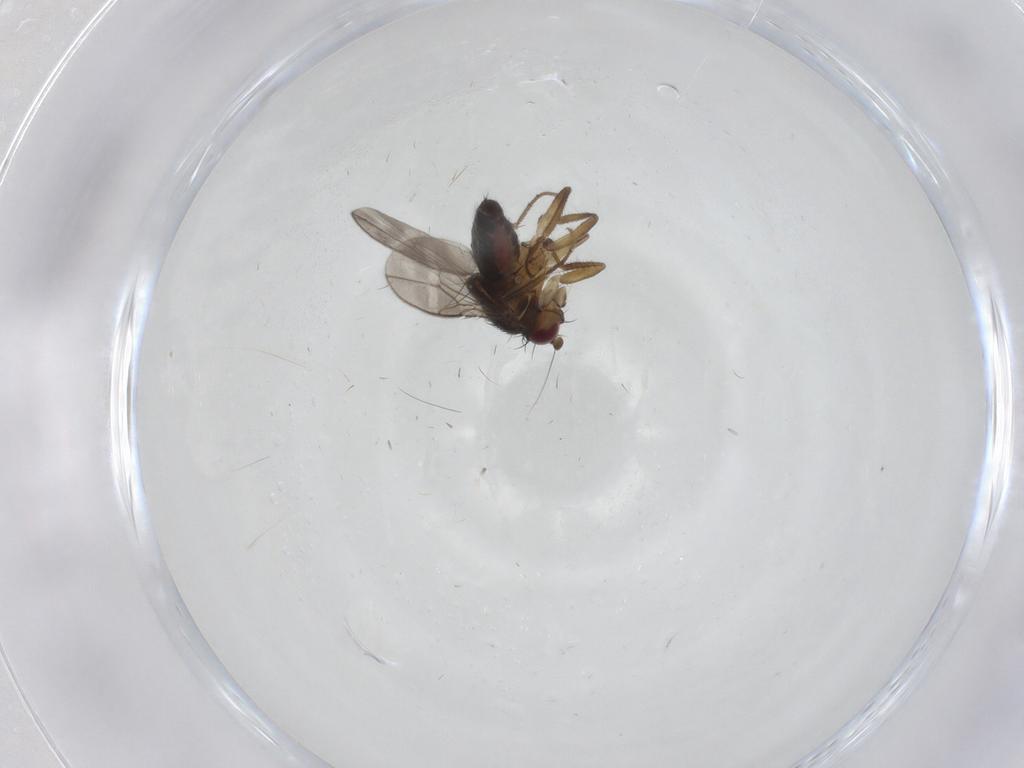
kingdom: Animalia
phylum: Arthropoda
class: Insecta
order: Diptera
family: Sphaeroceridae
